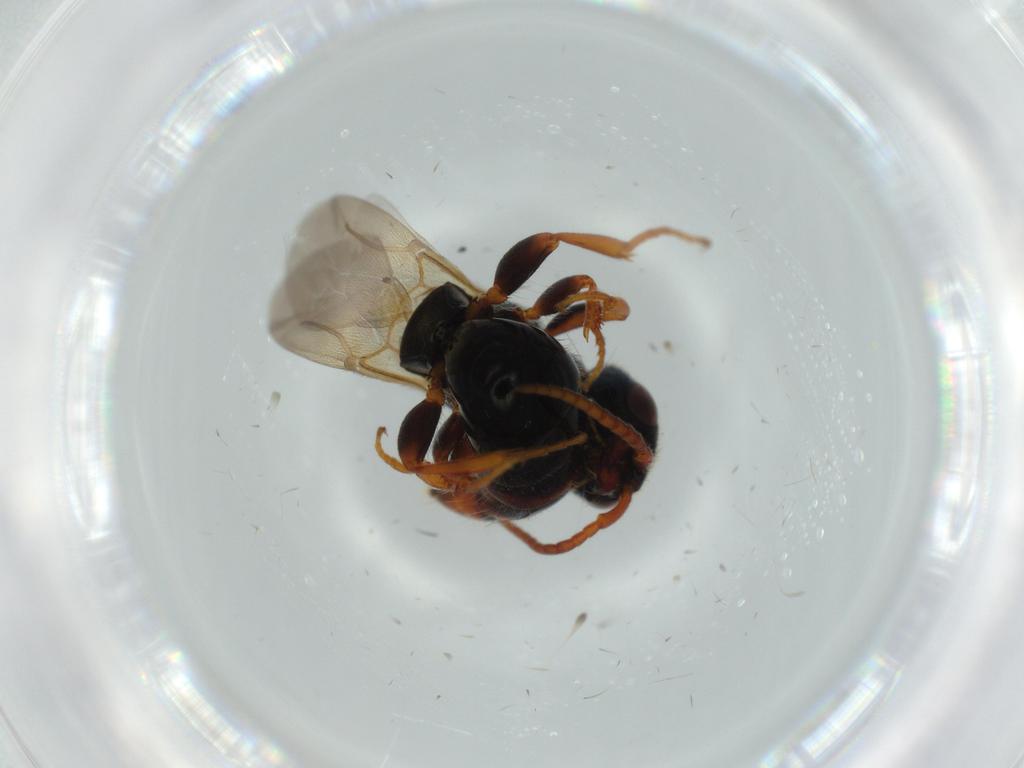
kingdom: Animalia
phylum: Arthropoda
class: Insecta
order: Hymenoptera
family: Bethylidae
